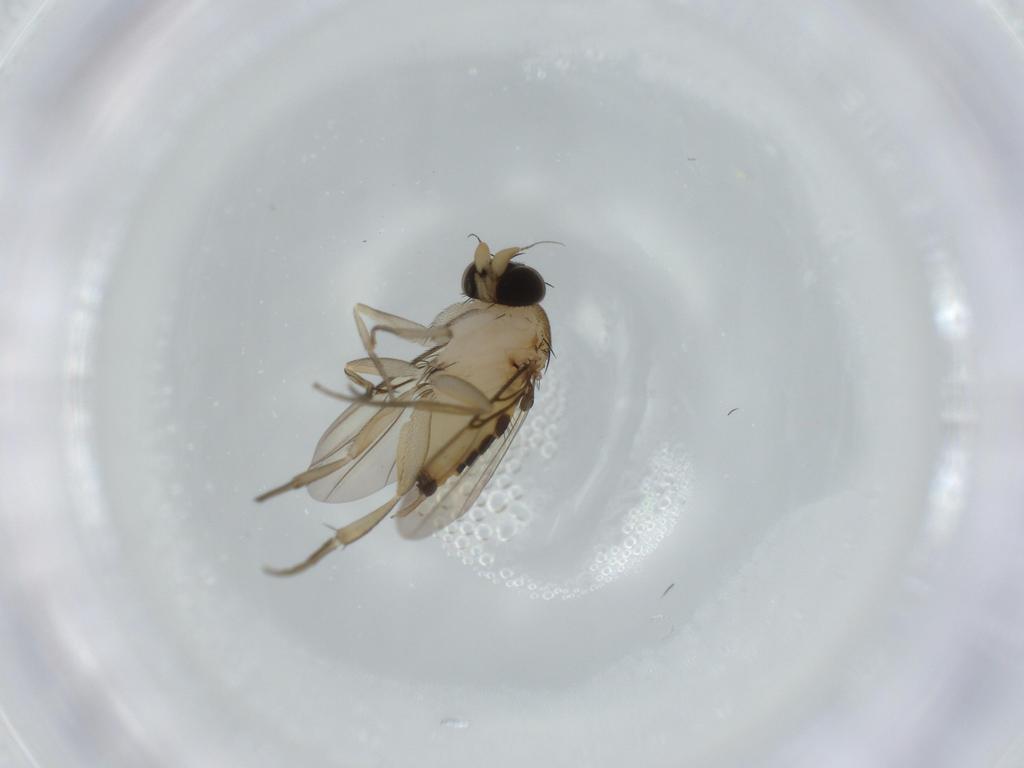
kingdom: Animalia
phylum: Arthropoda
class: Insecta
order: Diptera
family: Phoridae
